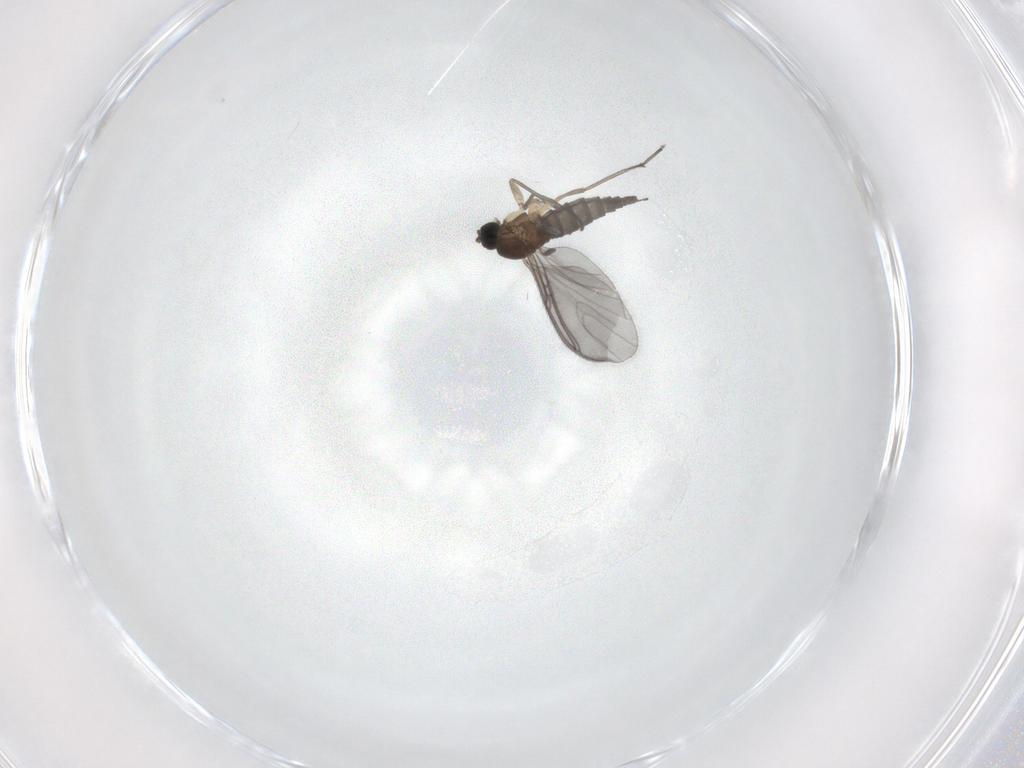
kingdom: Animalia
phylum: Arthropoda
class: Insecta
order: Diptera
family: Sciaridae
